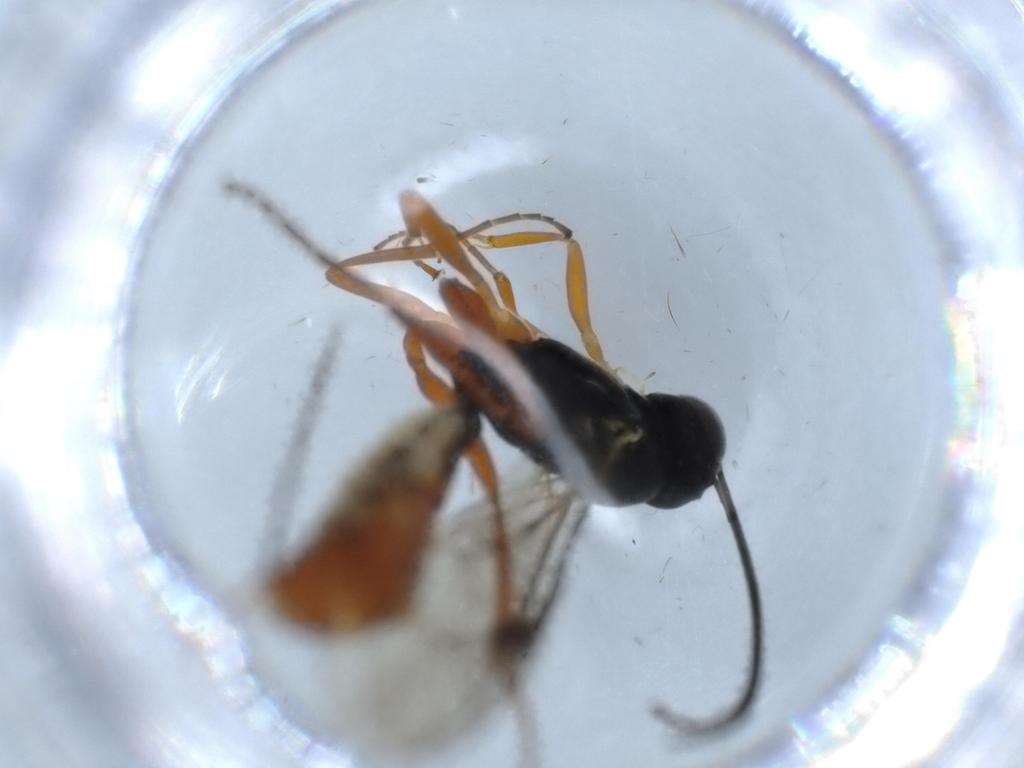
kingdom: Animalia
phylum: Arthropoda
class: Insecta
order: Hymenoptera
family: Ichneumonidae
